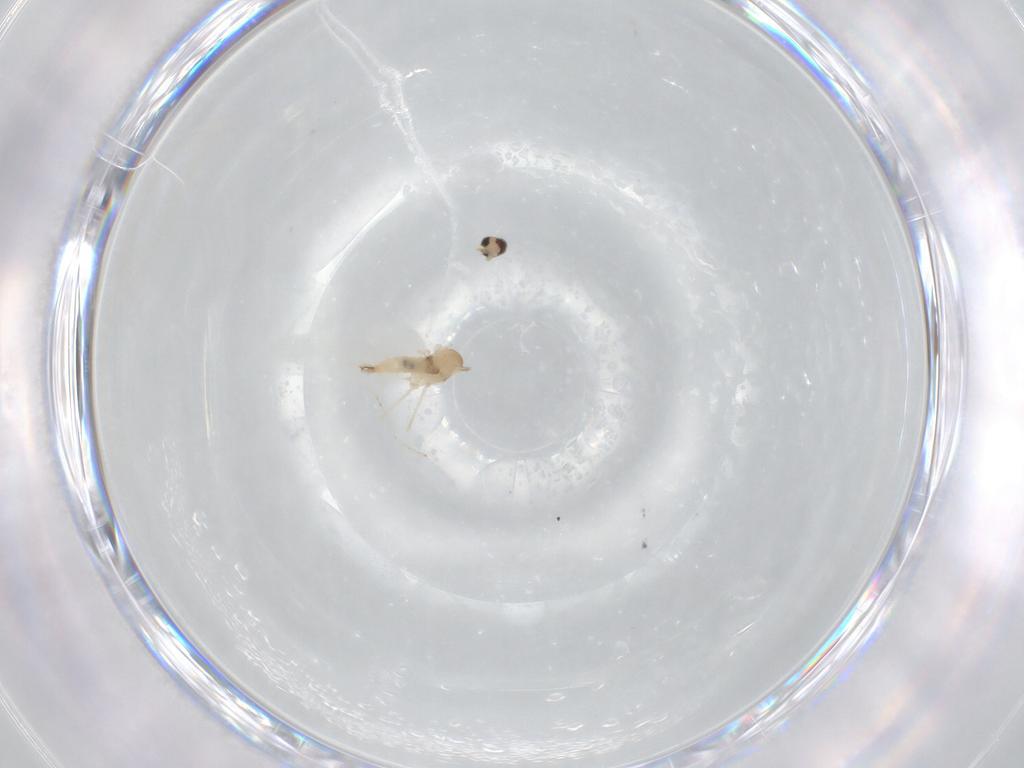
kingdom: Animalia
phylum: Arthropoda
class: Insecta
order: Diptera
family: Cecidomyiidae
